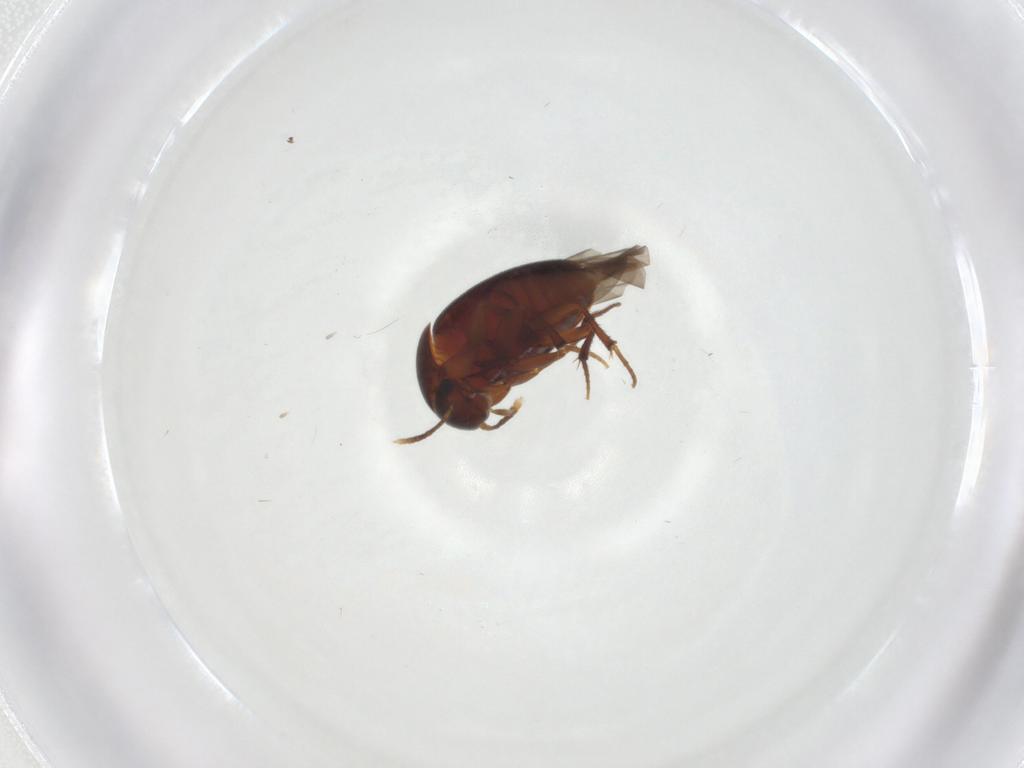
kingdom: Animalia
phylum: Arthropoda
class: Insecta
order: Coleoptera
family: Leiodidae
